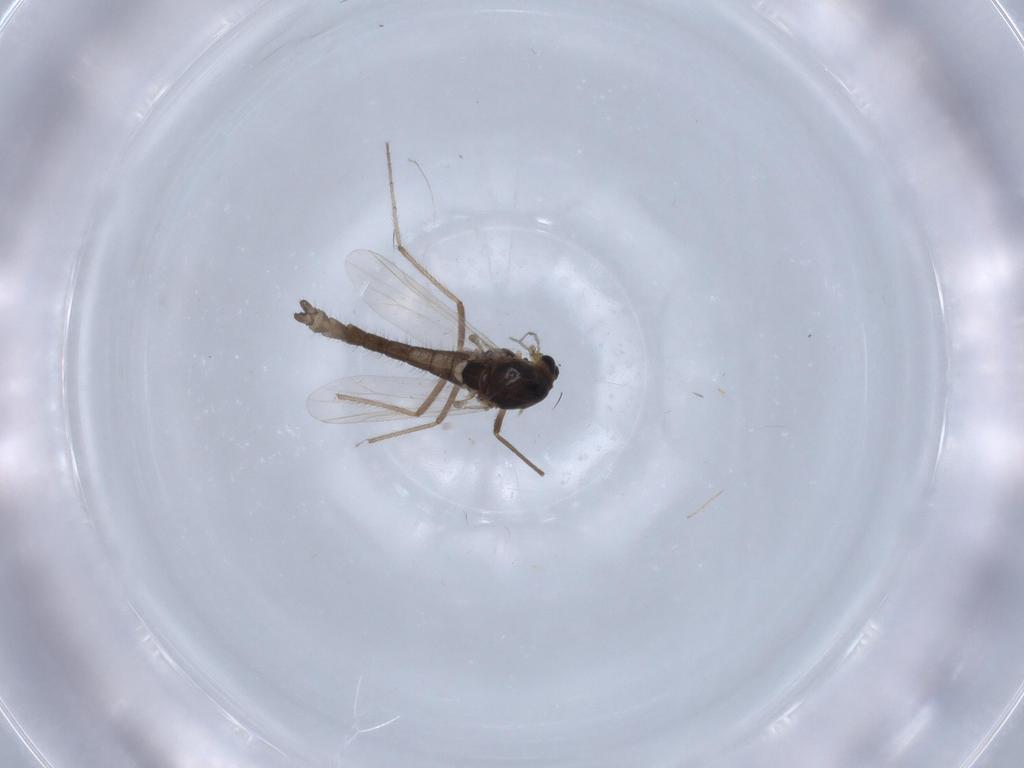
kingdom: Animalia
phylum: Arthropoda
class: Insecta
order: Diptera
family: Chironomidae
